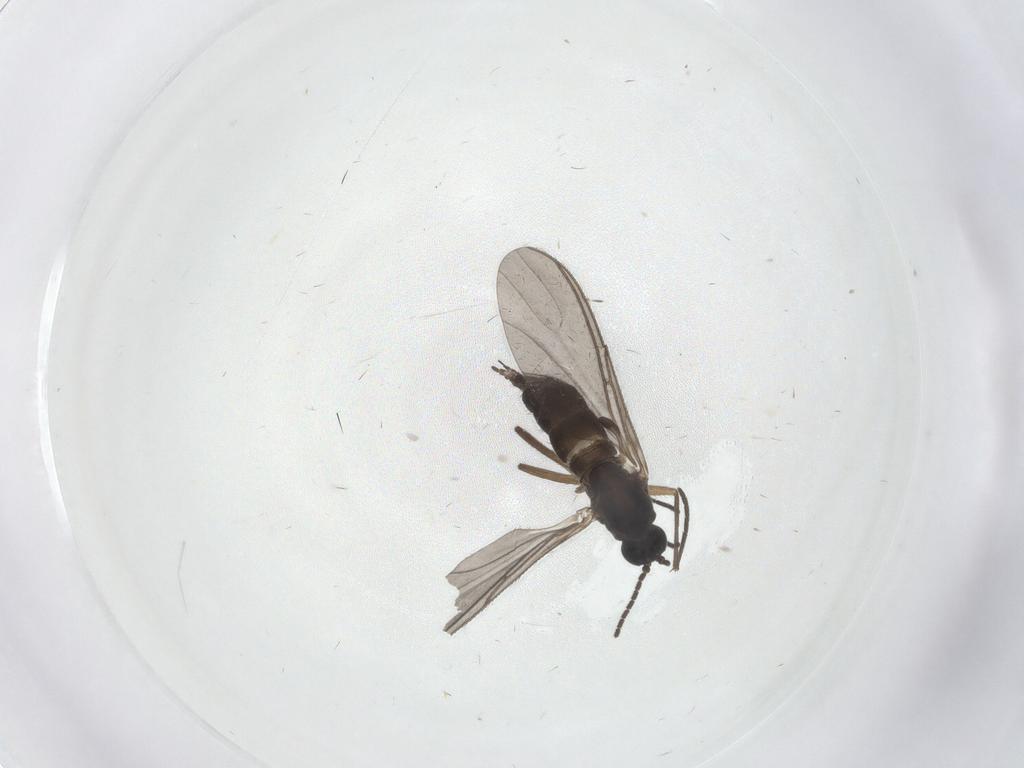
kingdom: Animalia
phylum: Arthropoda
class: Insecta
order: Diptera
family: Sciaridae
